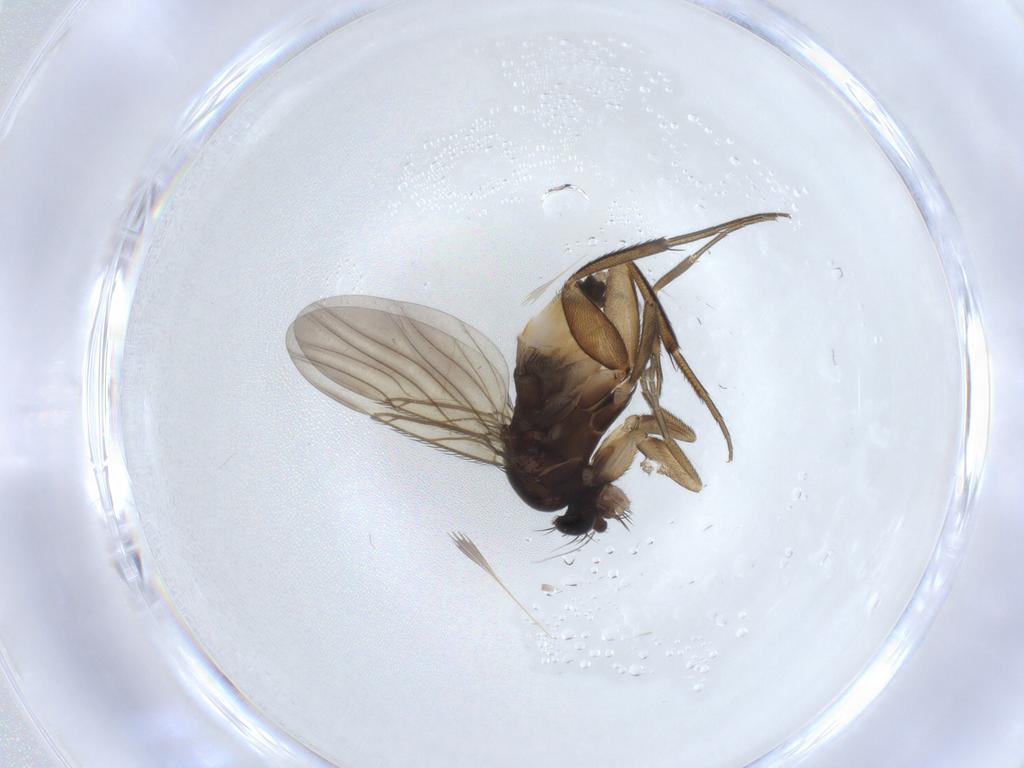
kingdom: Animalia
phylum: Arthropoda
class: Insecta
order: Diptera
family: Phoridae
